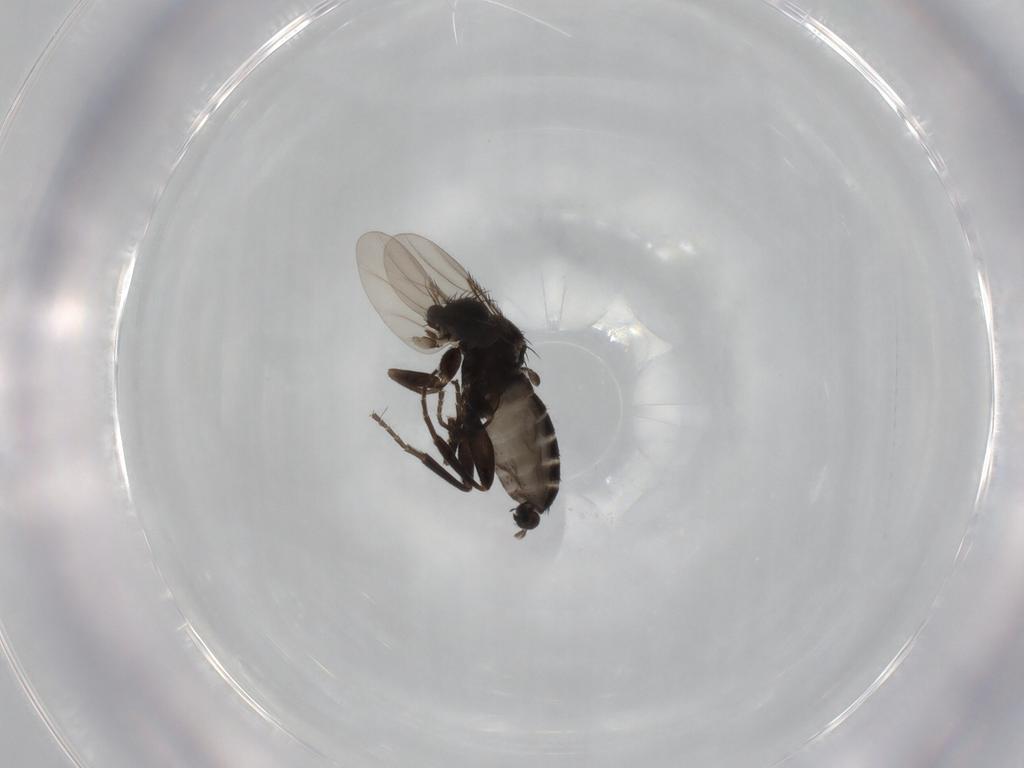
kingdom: Animalia
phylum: Arthropoda
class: Insecta
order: Diptera
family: Phoridae
